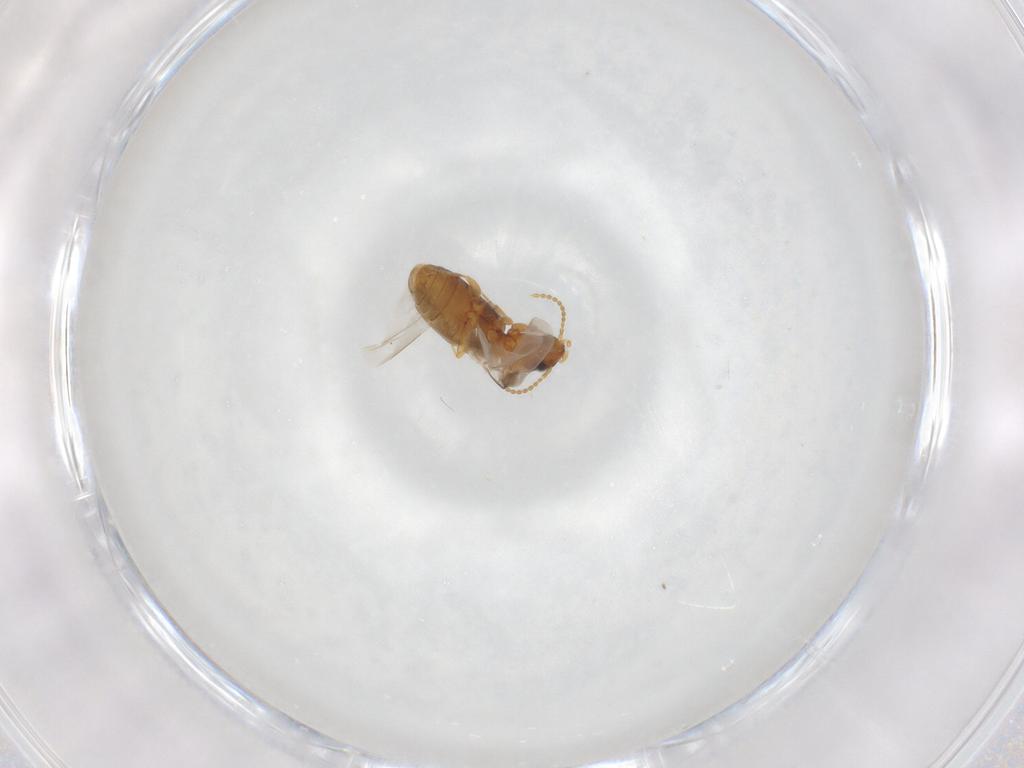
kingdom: Animalia
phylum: Arthropoda
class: Insecta
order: Coleoptera
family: Carabidae
